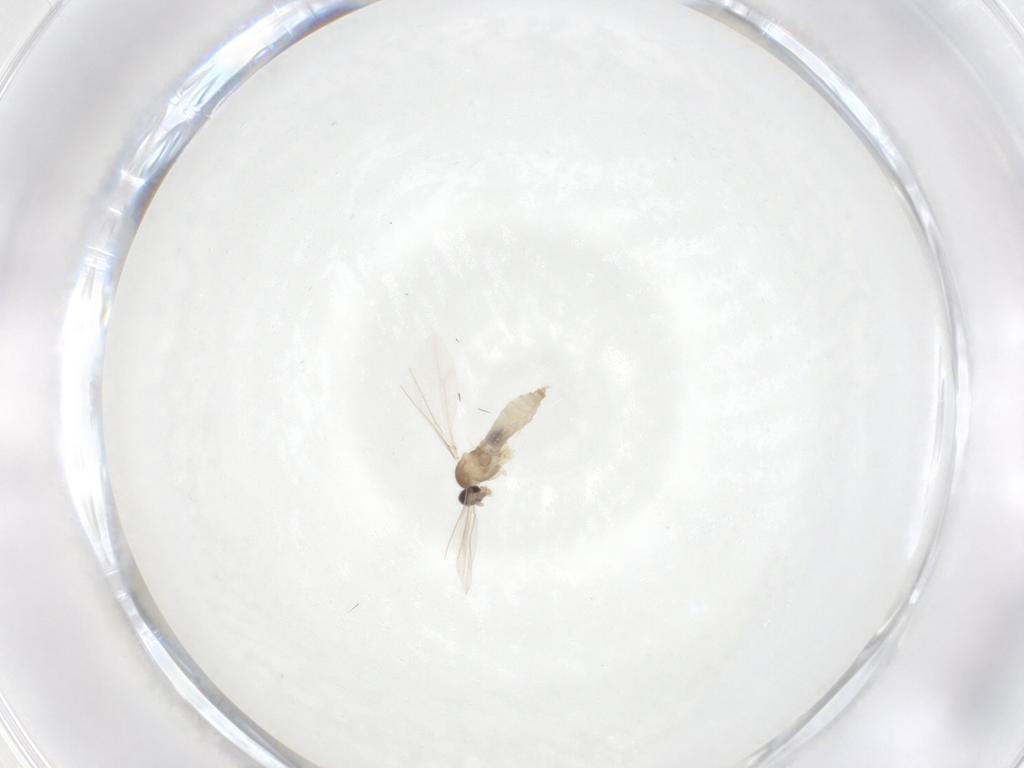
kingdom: Animalia
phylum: Arthropoda
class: Insecta
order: Diptera
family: Cecidomyiidae
